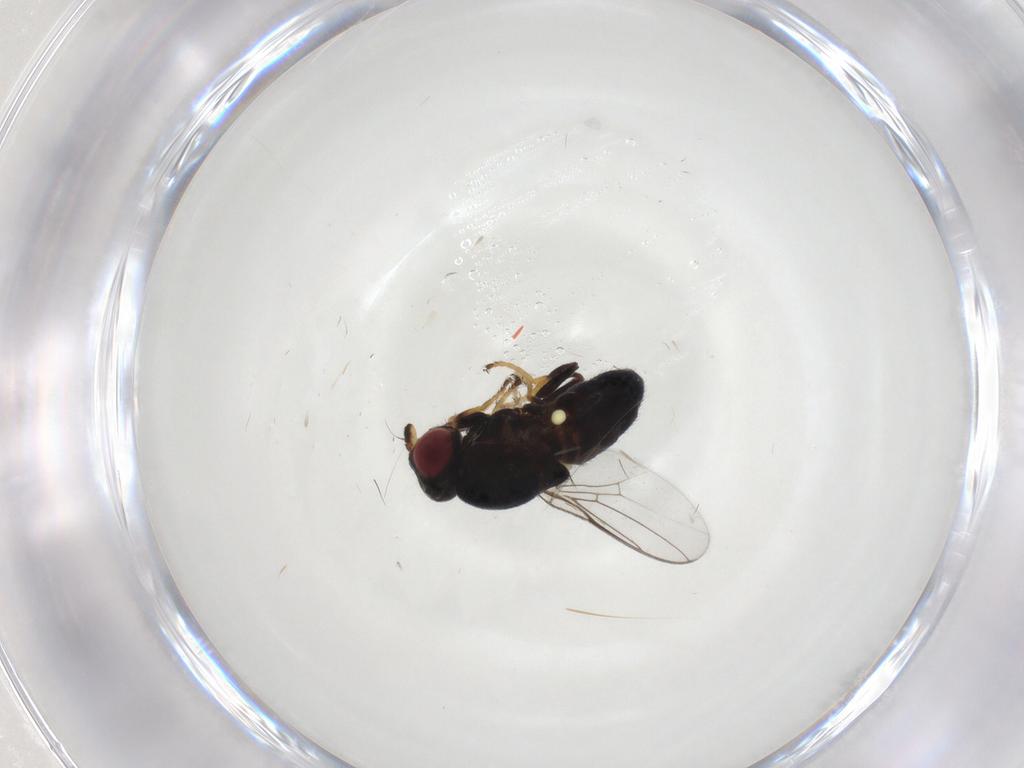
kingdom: Animalia
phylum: Arthropoda
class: Insecta
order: Diptera
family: Chloropidae
